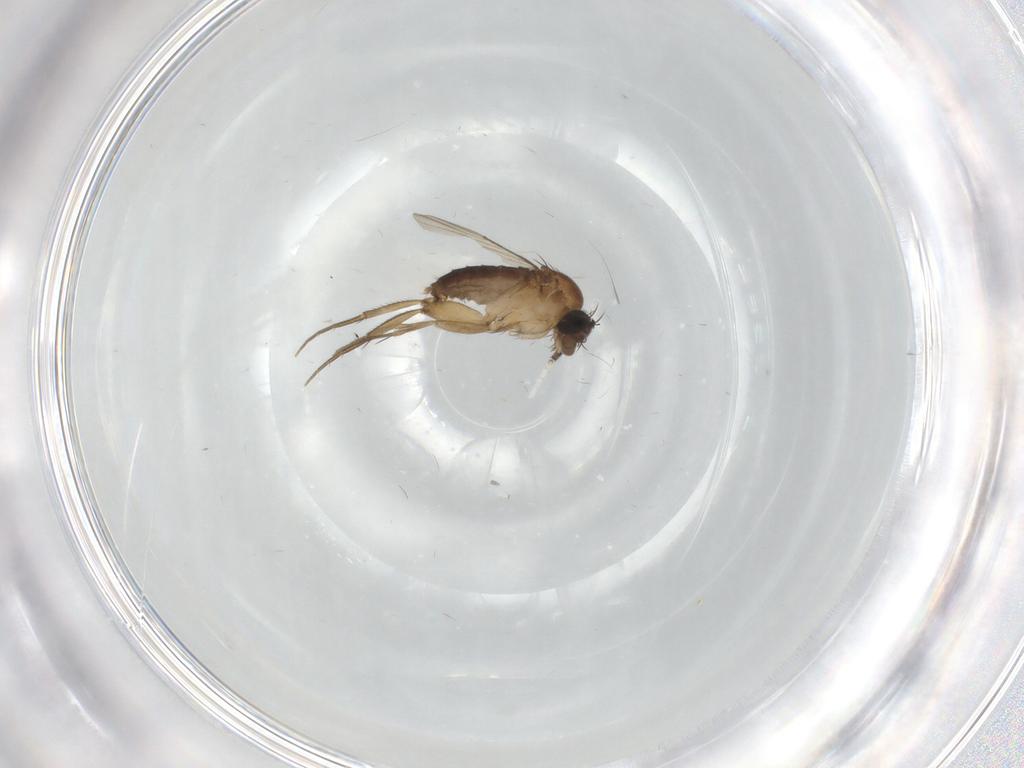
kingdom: Animalia
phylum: Arthropoda
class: Insecta
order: Diptera
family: Phoridae
